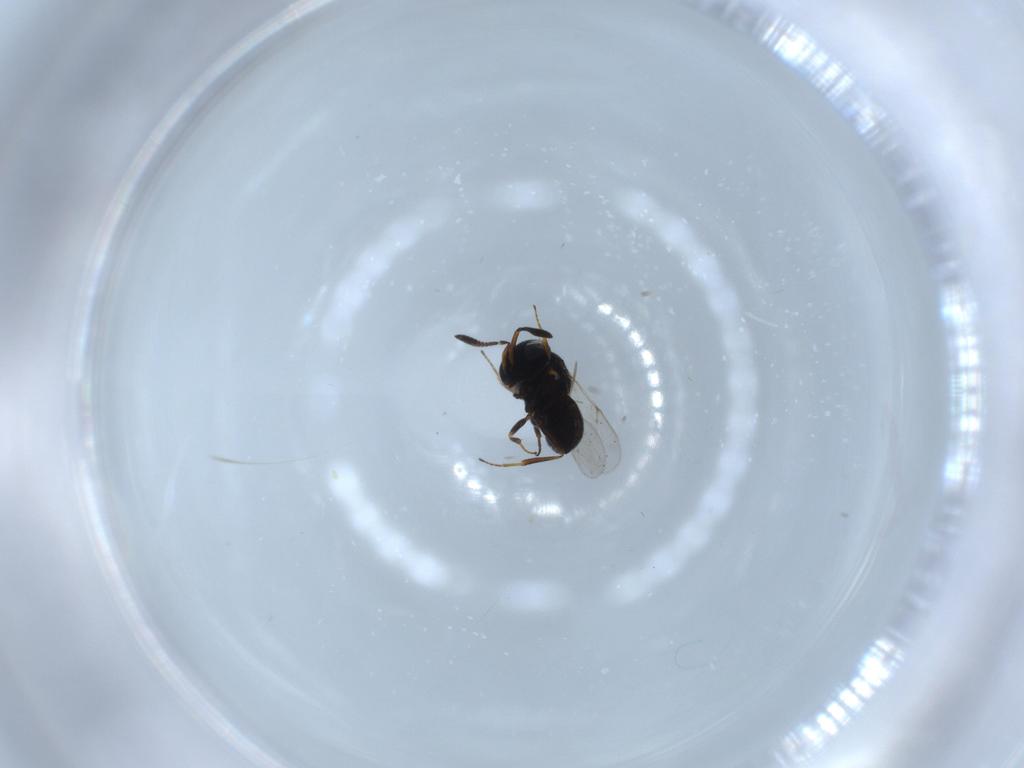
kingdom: Animalia
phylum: Arthropoda
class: Insecta
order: Hymenoptera
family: Scelionidae
